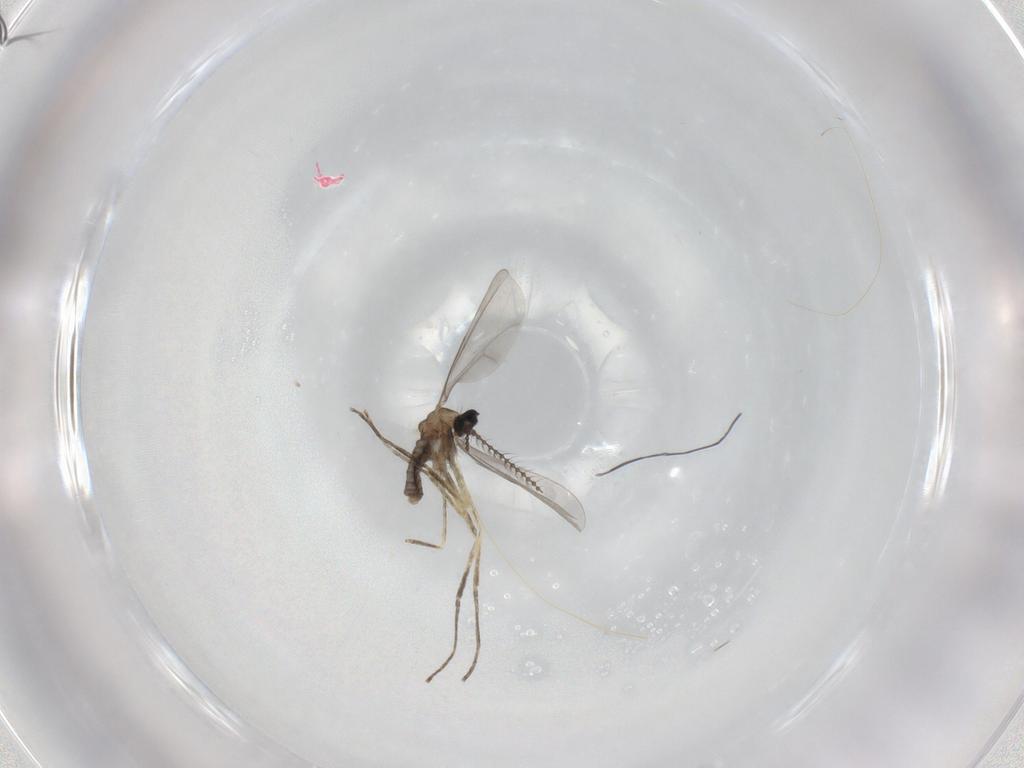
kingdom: Animalia
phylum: Arthropoda
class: Insecta
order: Diptera
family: Cecidomyiidae
